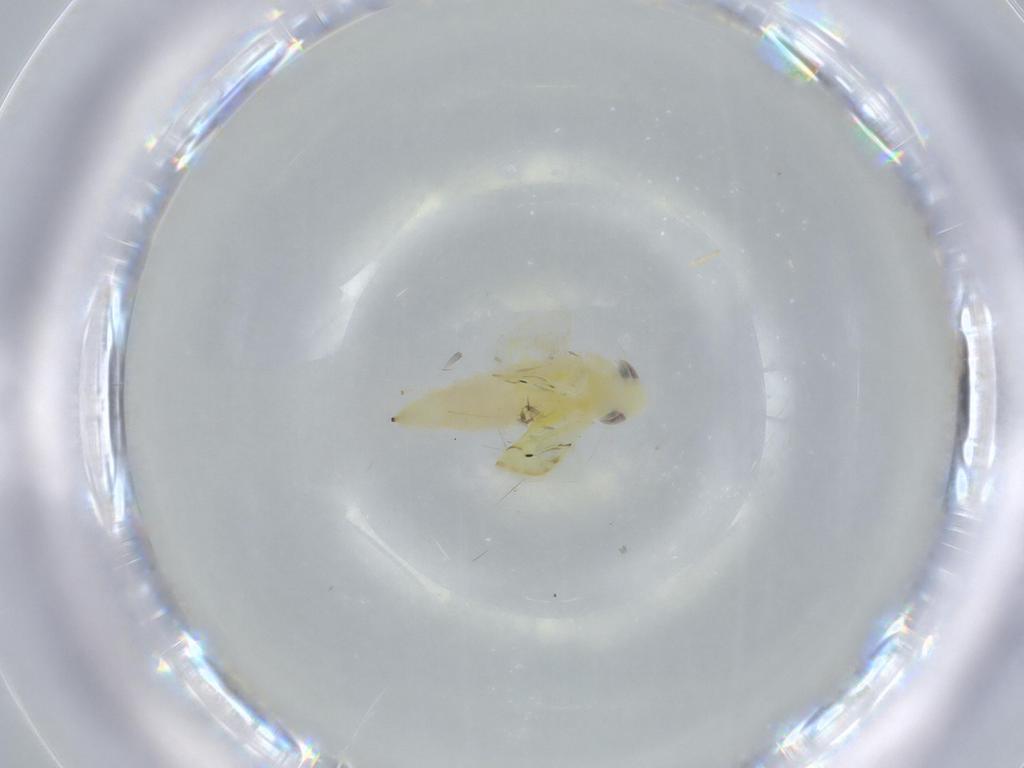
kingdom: Animalia
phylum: Arthropoda
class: Insecta
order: Hemiptera
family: Cicadellidae
